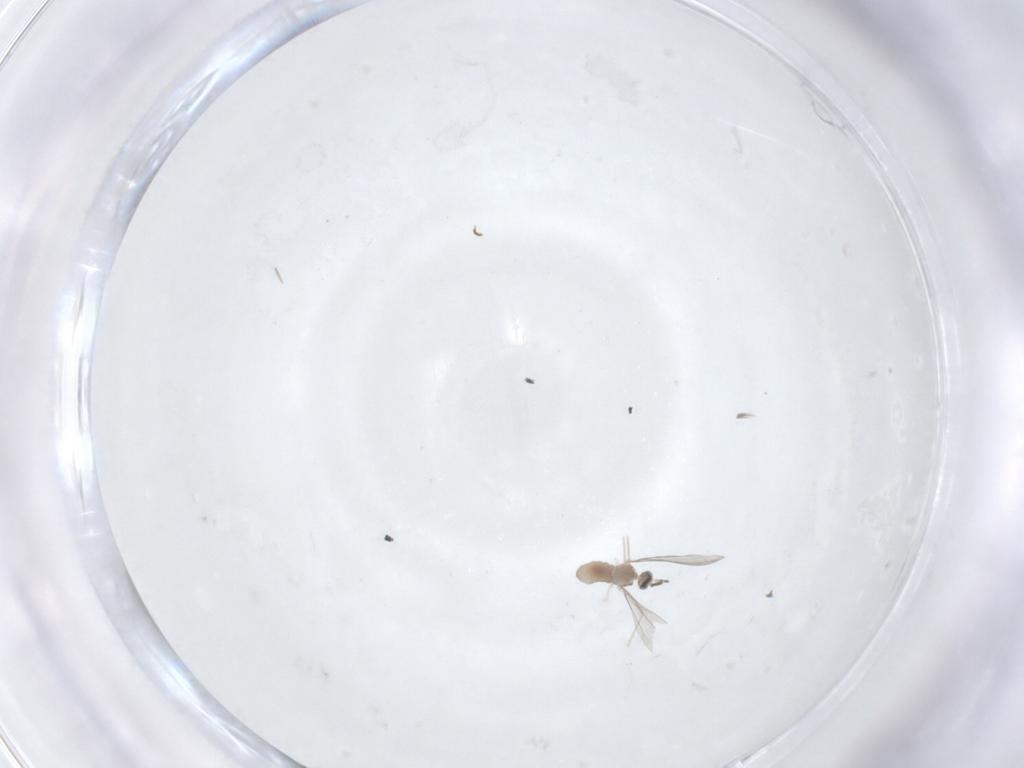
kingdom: Animalia
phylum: Arthropoda
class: Insecta
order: Diptera
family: Cecidomyiidae
